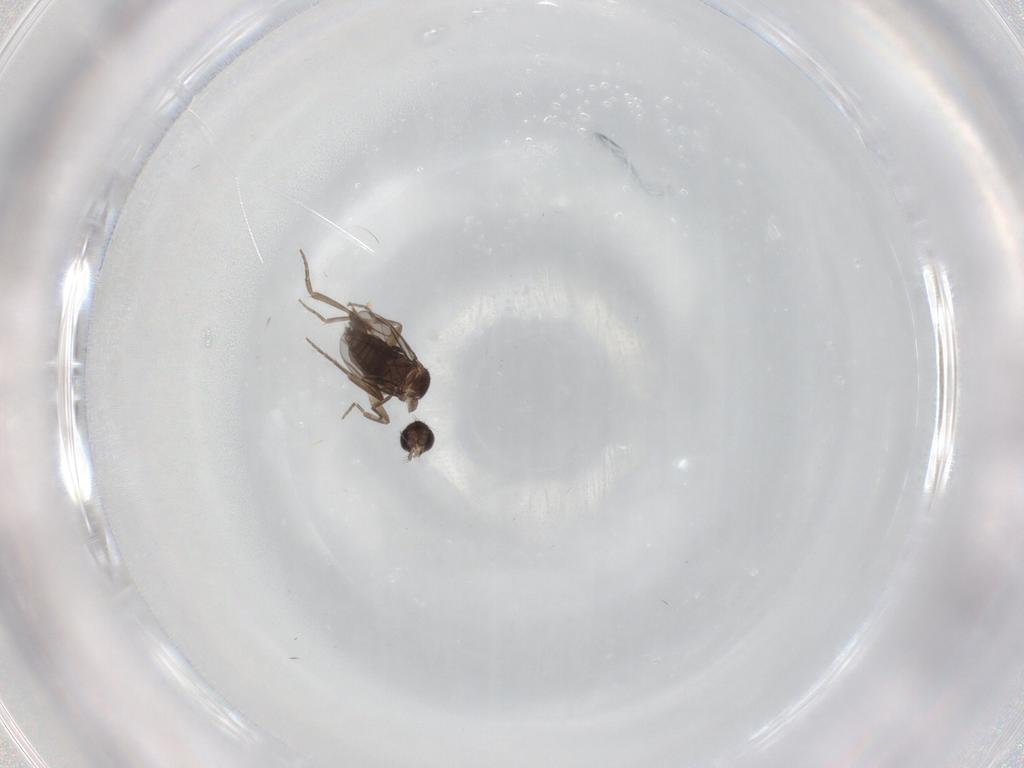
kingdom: Animalia
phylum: Arthropoda
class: Insecta
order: Diptera
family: Phoridae
